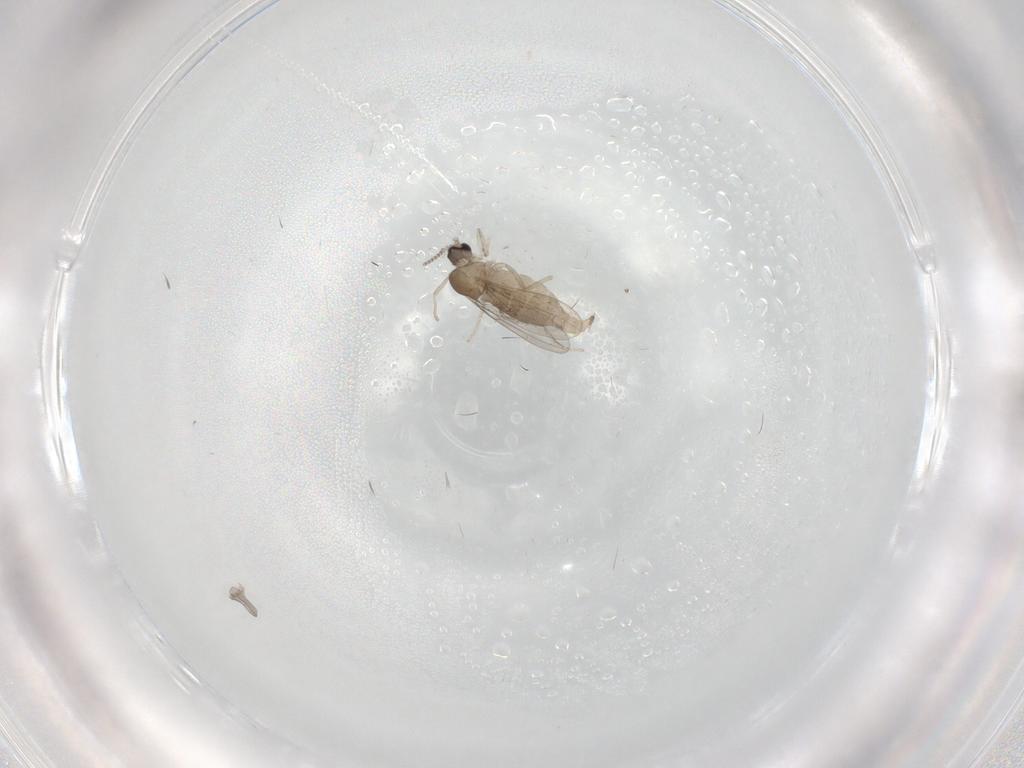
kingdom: Animalia
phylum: Arthropoda
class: Insecta
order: Diptera
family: Cecidomyiidae
